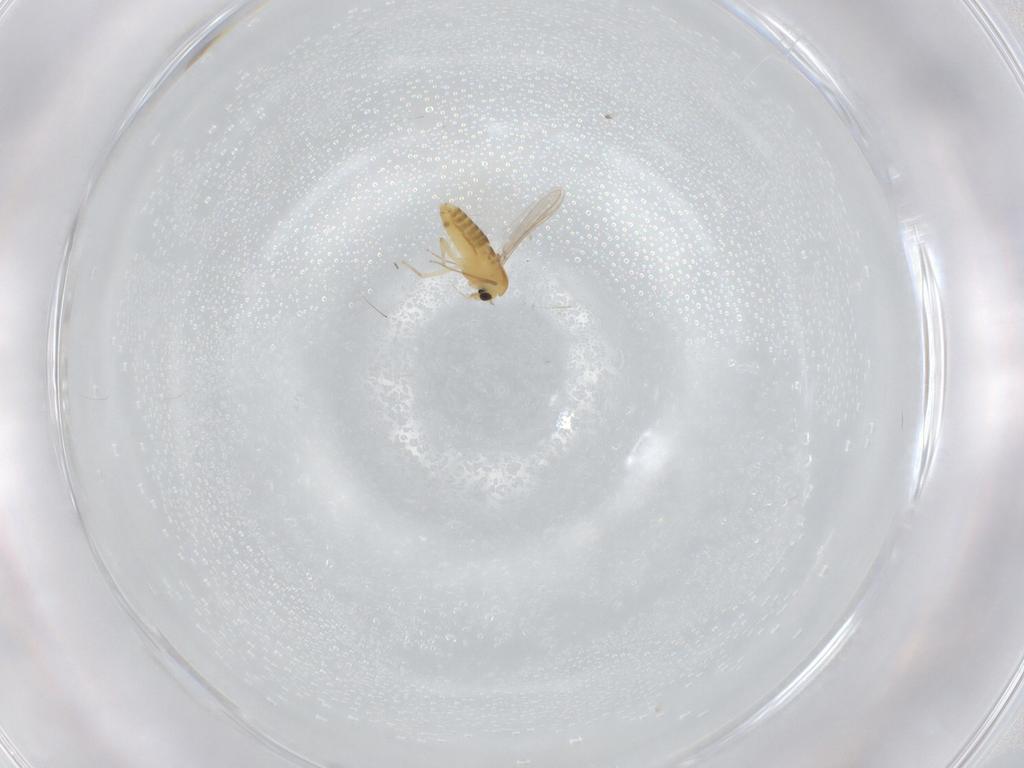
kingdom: Animalia
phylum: Arthropoda
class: Insecta
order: Diptera
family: Chironomidae
